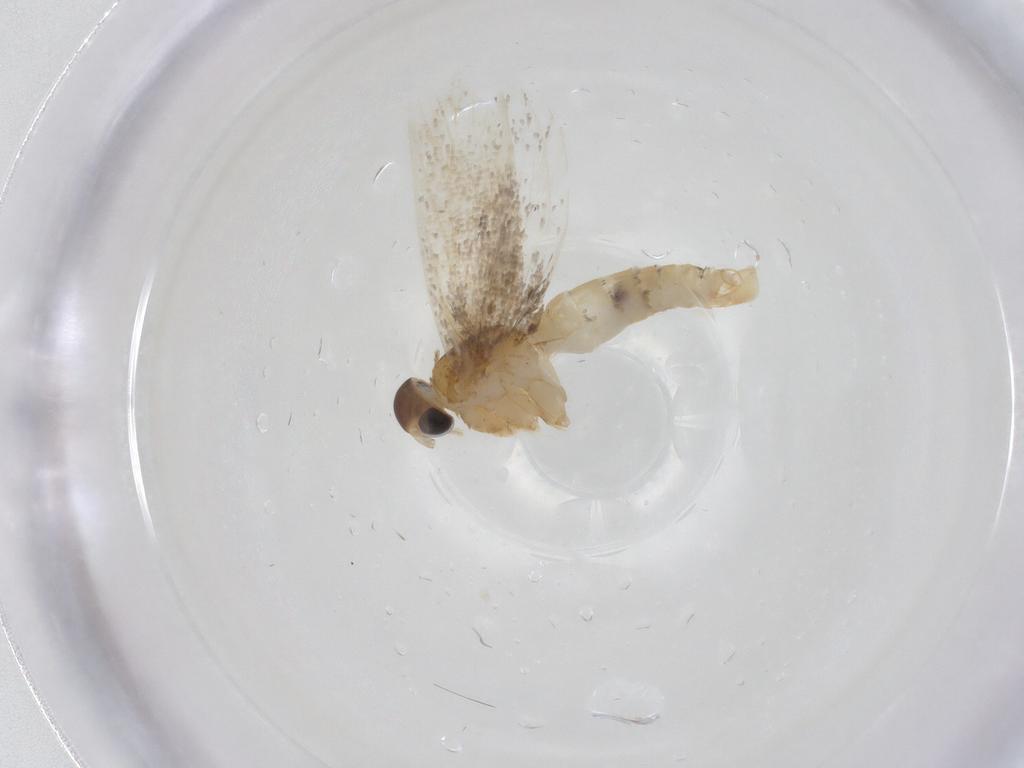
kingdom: Animalia
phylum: Arthropoda
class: Insecta
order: Lepidoptera
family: Oecophoridae
